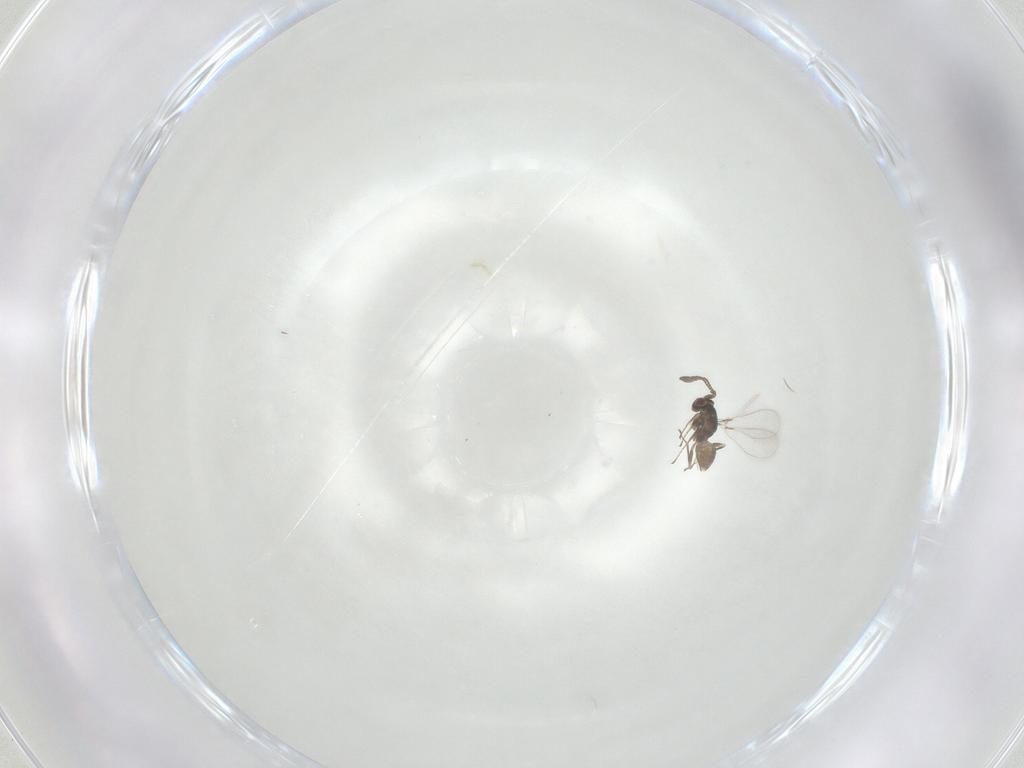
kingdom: Animalia
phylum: Arthropoda
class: Insecta
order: Hymenoptera
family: Mymaridae
